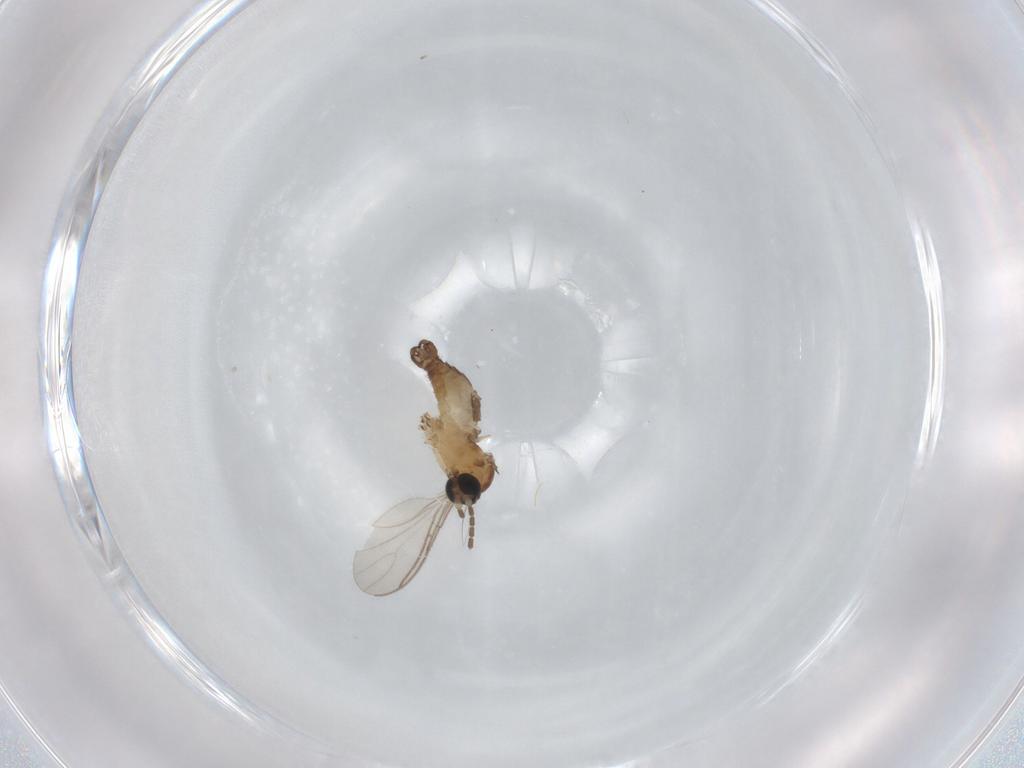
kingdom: Animalia
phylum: Arthropoda
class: Insecta
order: Diptera
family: Sciaridae
